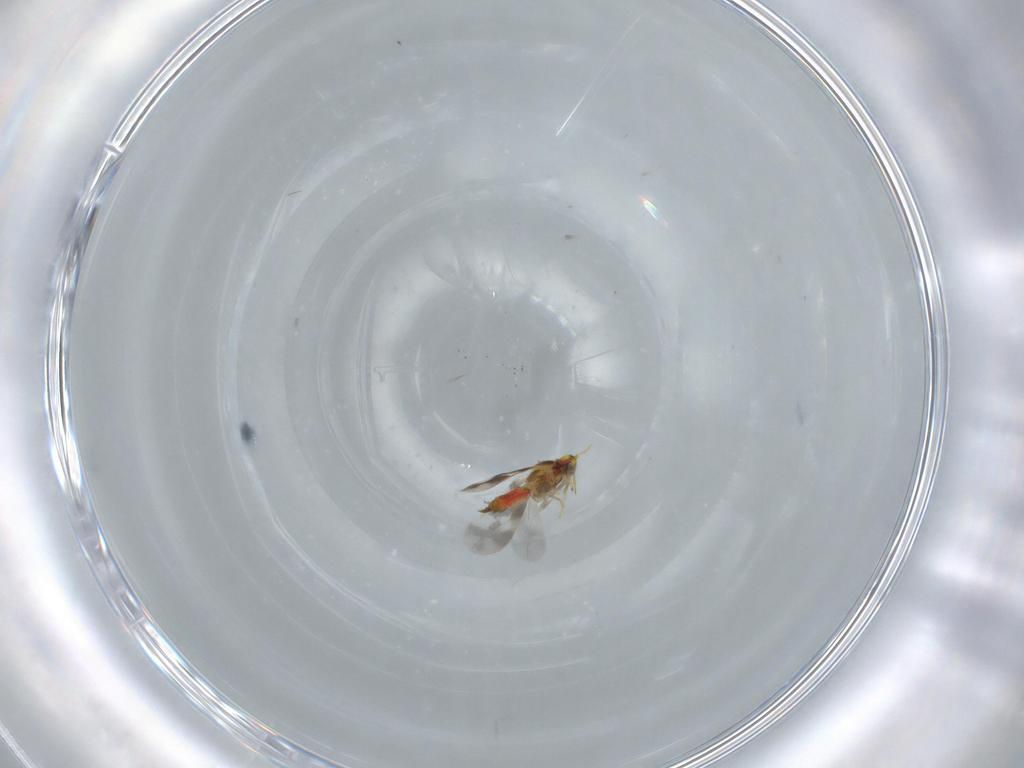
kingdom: Animalia
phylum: Arthropoda
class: Insecta
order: Hemiptera
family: Aleyrodidae
